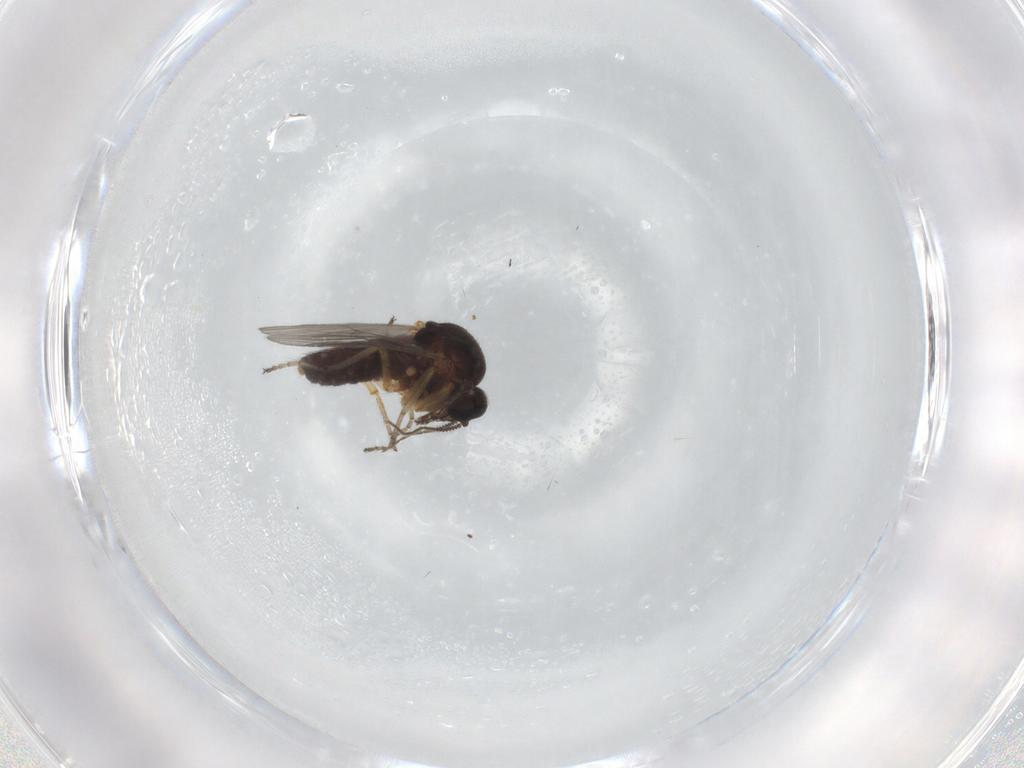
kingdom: Animalia
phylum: Arthropoda
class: Insecta
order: Diptera
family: Ceratopogonidae
